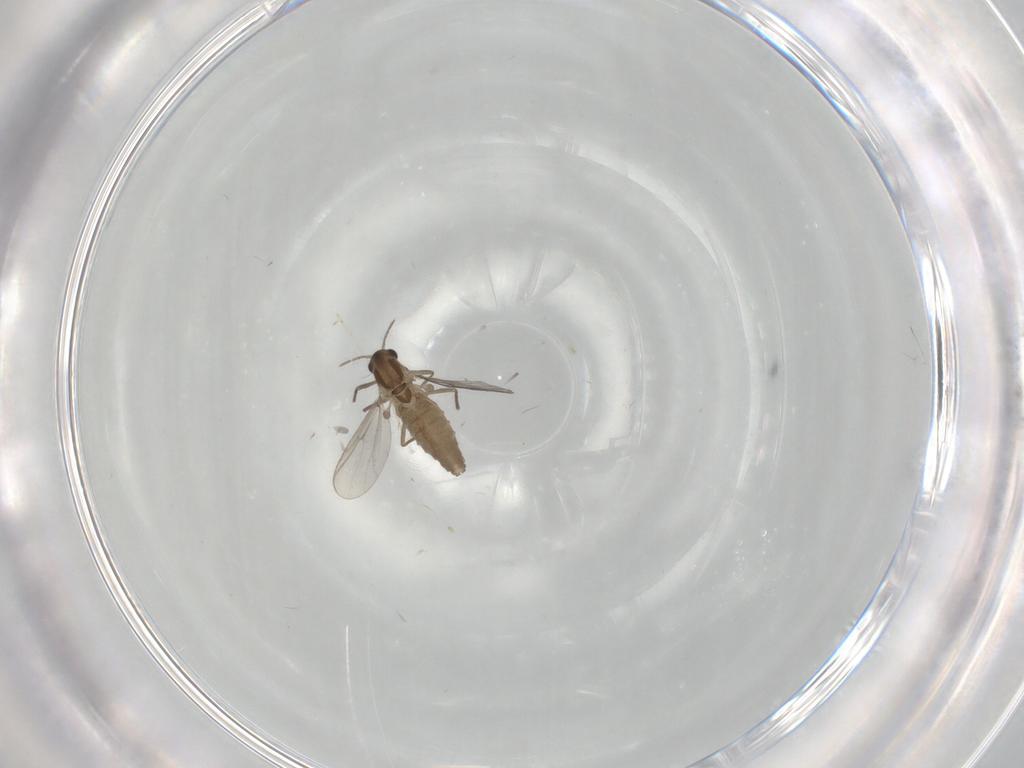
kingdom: Animalia
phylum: Arthropoda
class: Insecta
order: Diptera
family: Chironomidae
